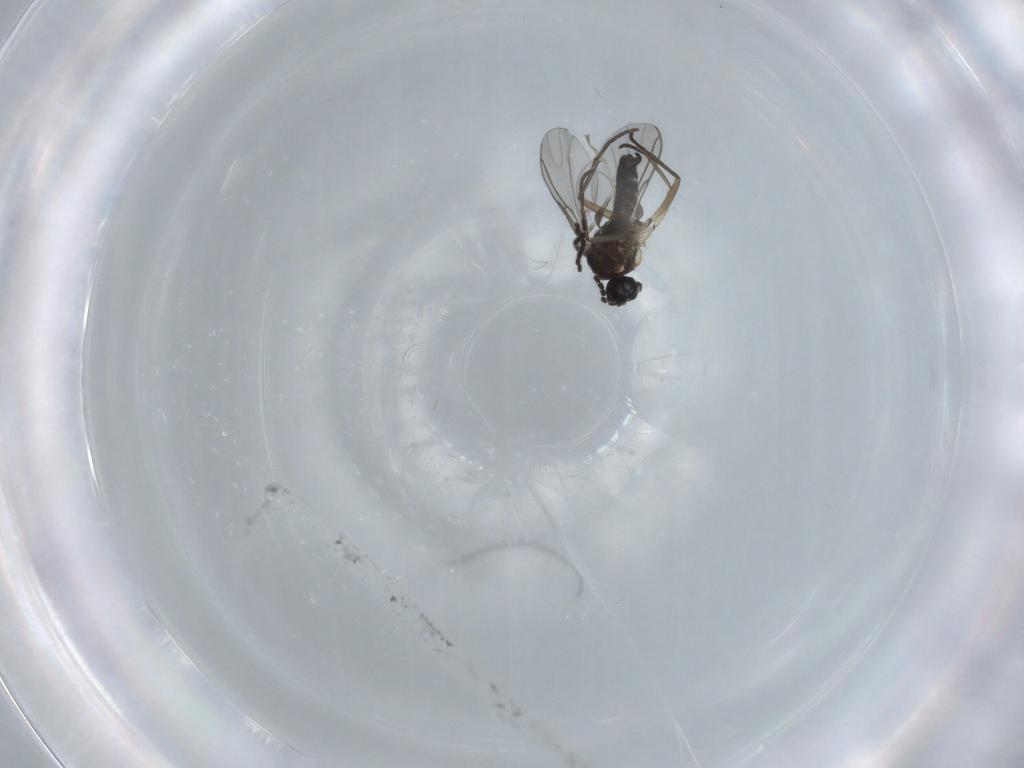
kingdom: Animalia
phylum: Arthropoda
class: Insecta
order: Diptera
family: Sciaridae
